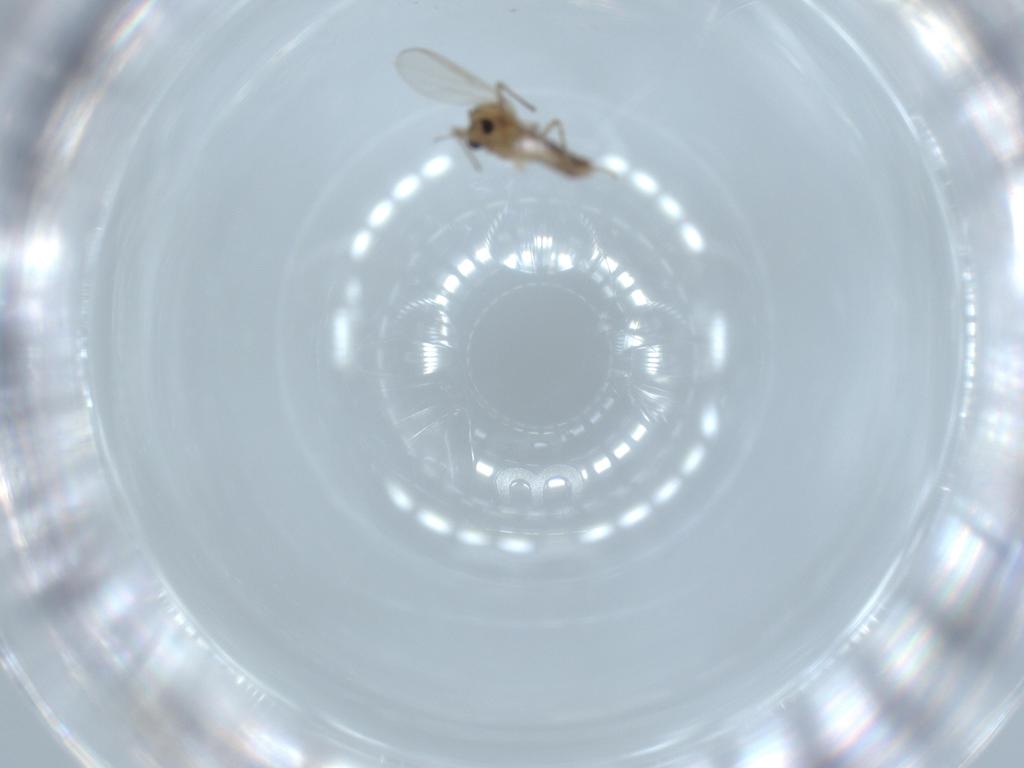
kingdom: Animalia
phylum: Arthropoda
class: Insecta
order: Diptera
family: Chironomidae
